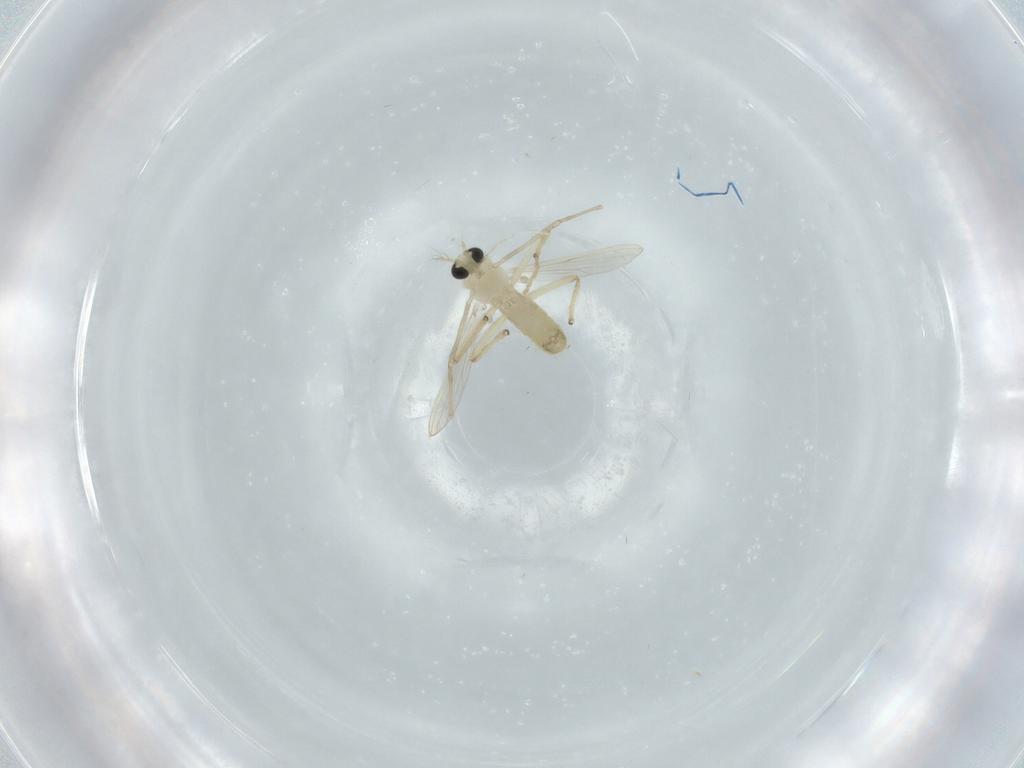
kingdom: Animalia
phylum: Arthropoda
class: Insecta
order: Diptera
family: Chironomidae
